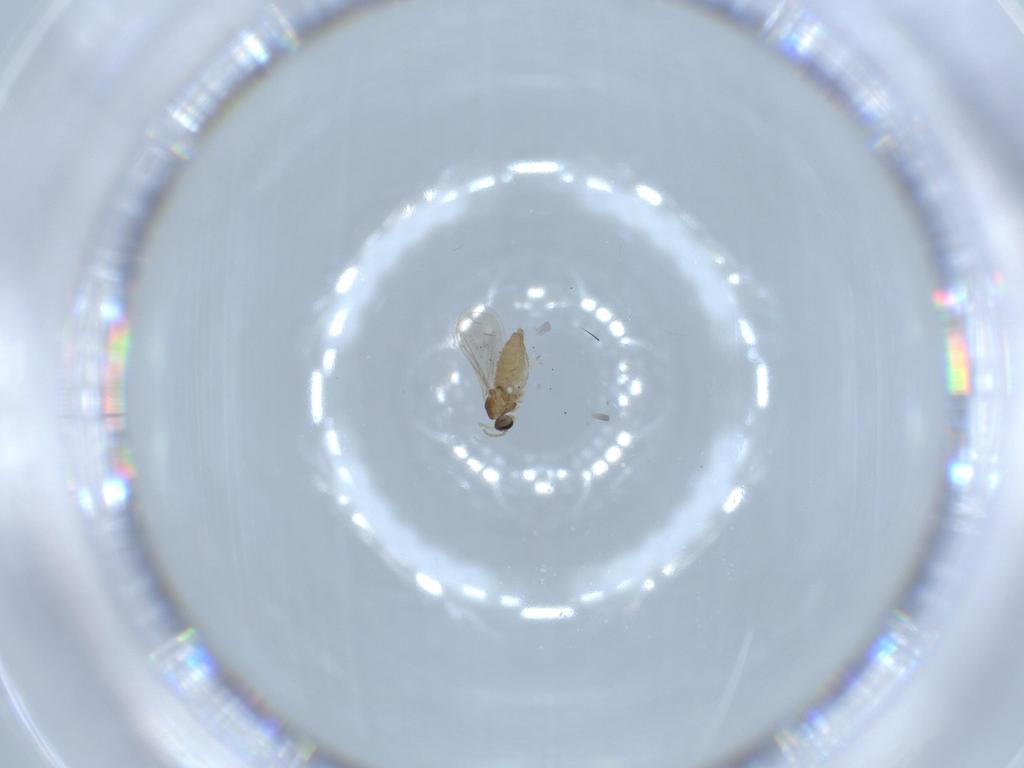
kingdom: Animalia
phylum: Arthropoda
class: Insecta
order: Diptera
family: Cecidomyiidae
